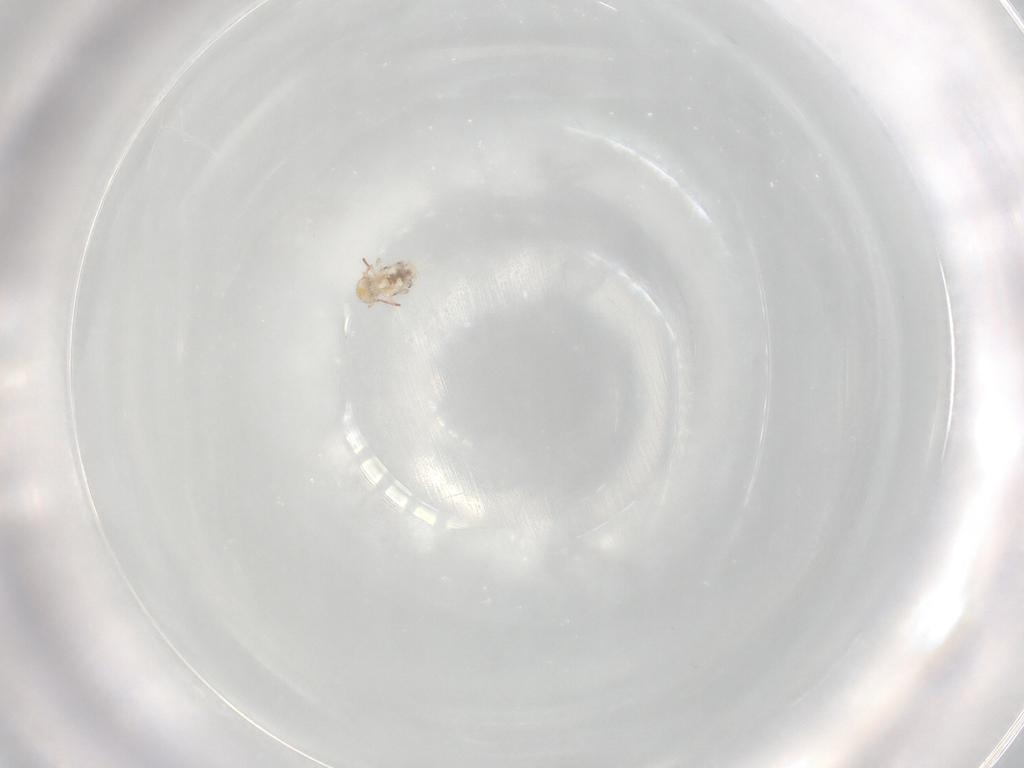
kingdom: Animalia
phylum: Arthropoda
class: Collembola
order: Symphypleona
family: Bourletiellidae
